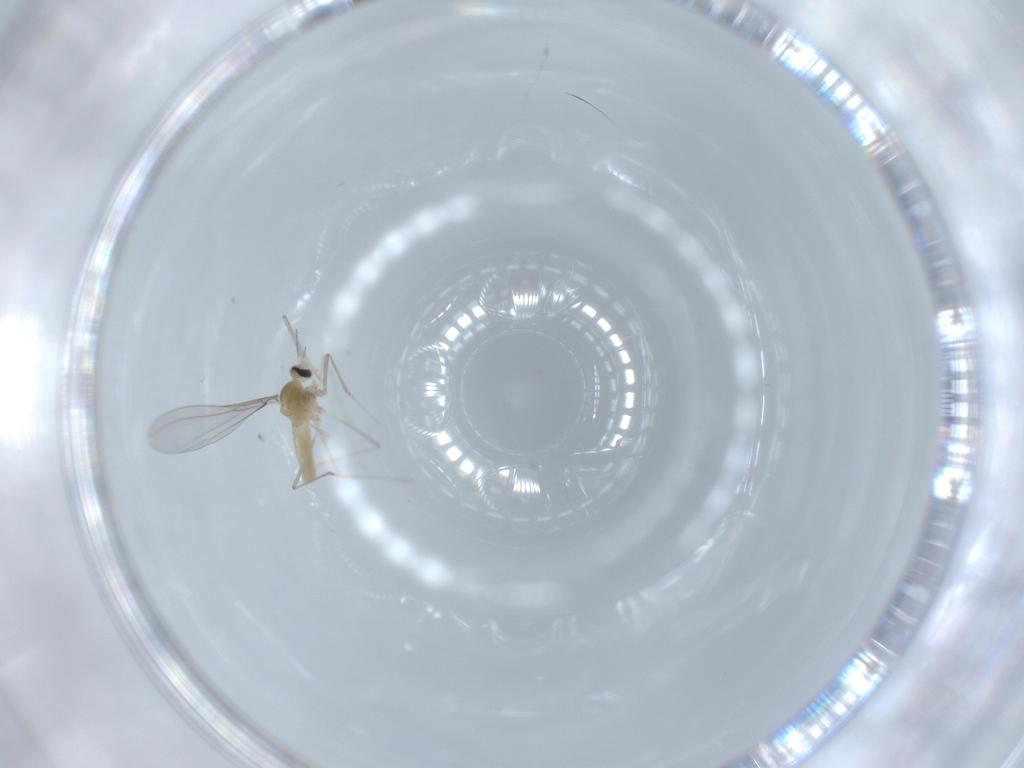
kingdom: Animalia
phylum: Arthropoda
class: Insecta
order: Diptera
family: Cecidomyiidae
